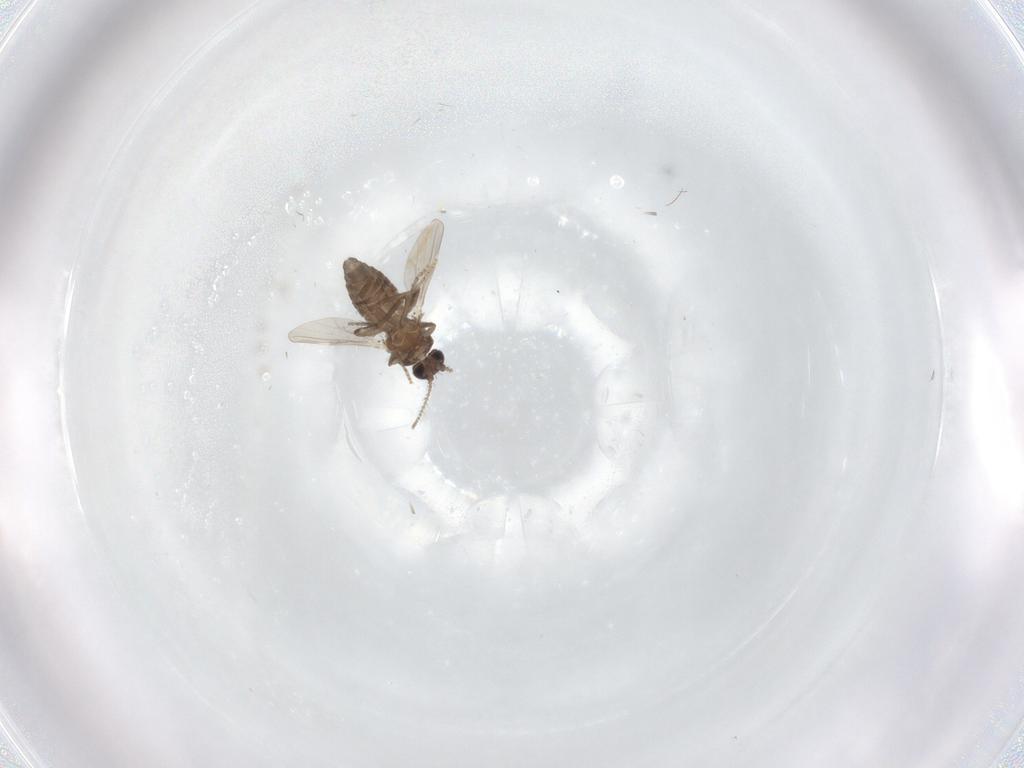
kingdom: Animalia
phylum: Arthropoda
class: Insecta
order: Diptera
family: Ceratopogonidae
